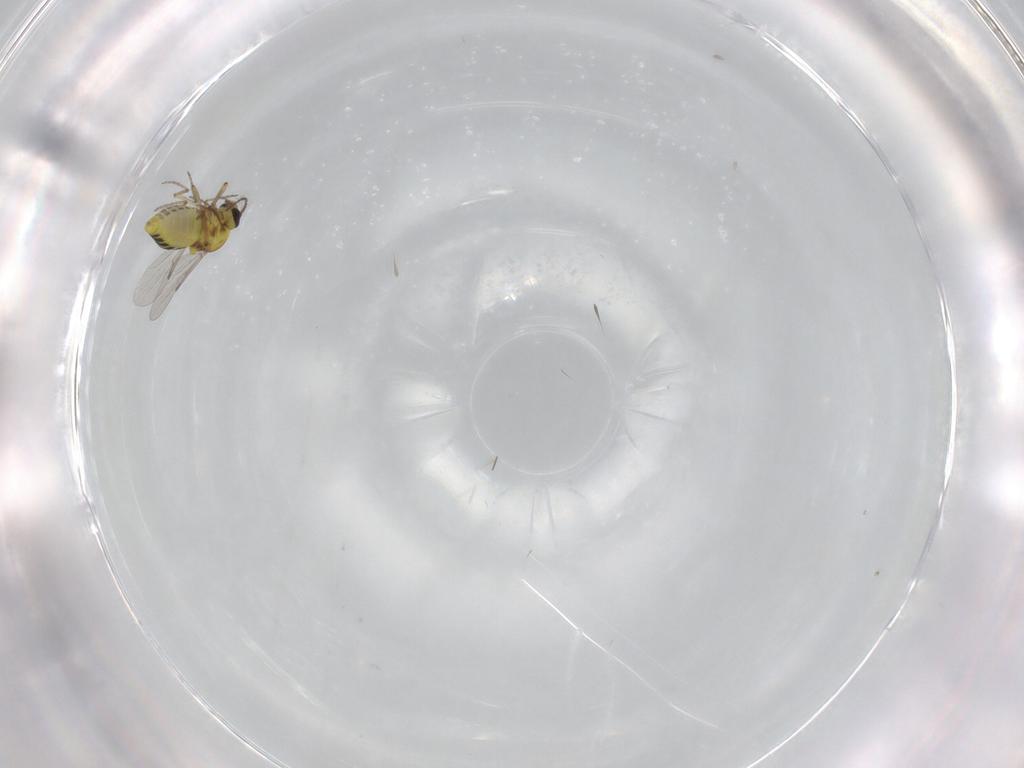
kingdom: Animalia
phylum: Arthropoda
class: Insecta
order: Diptera
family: Ceratopogonidae
